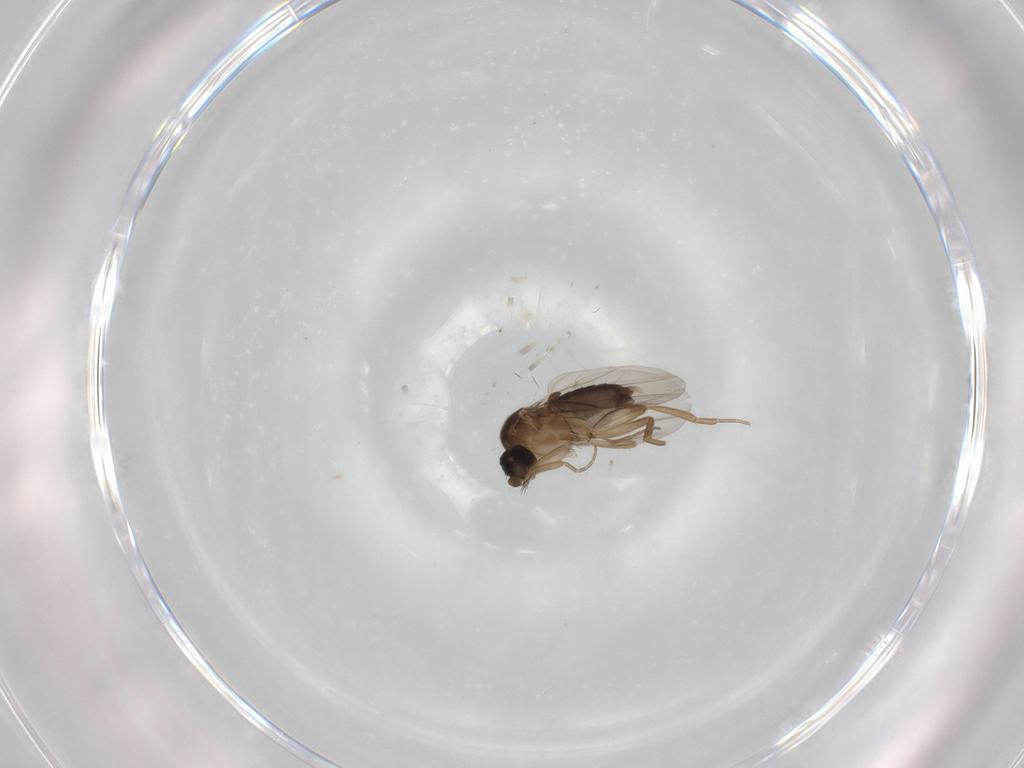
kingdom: Animalia
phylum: Arthropoda
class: Insecta
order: Diptera
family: Phoridae
